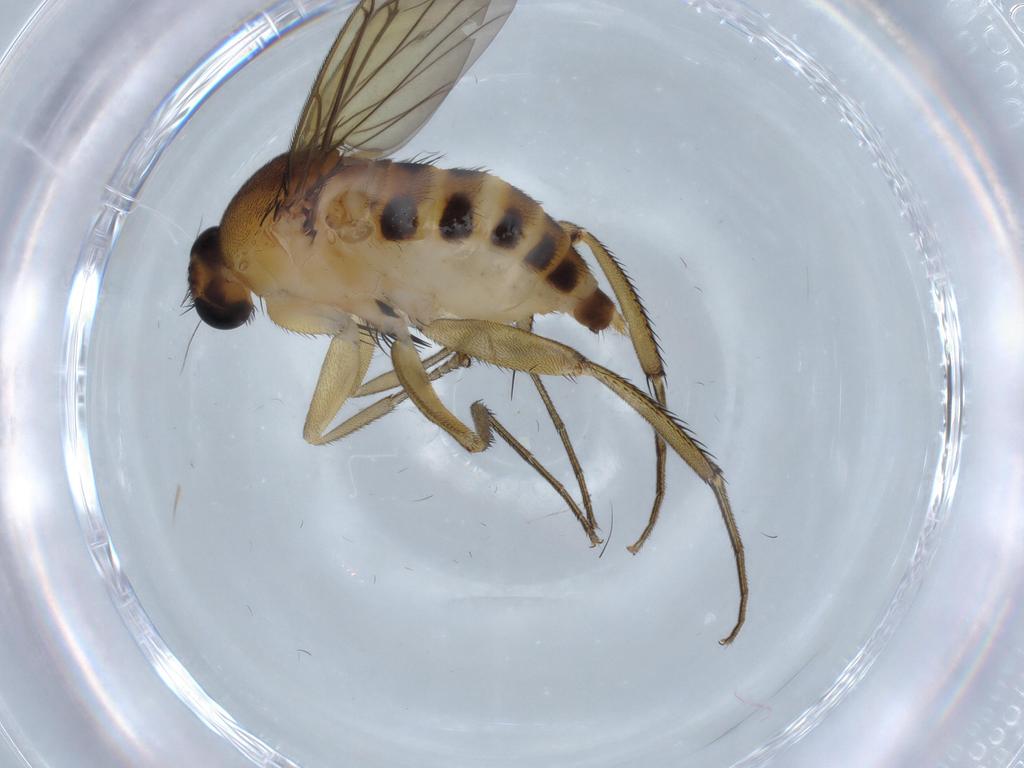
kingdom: Animalia
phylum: Arthropoda
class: Insecta
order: Diptera
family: Phoridae
